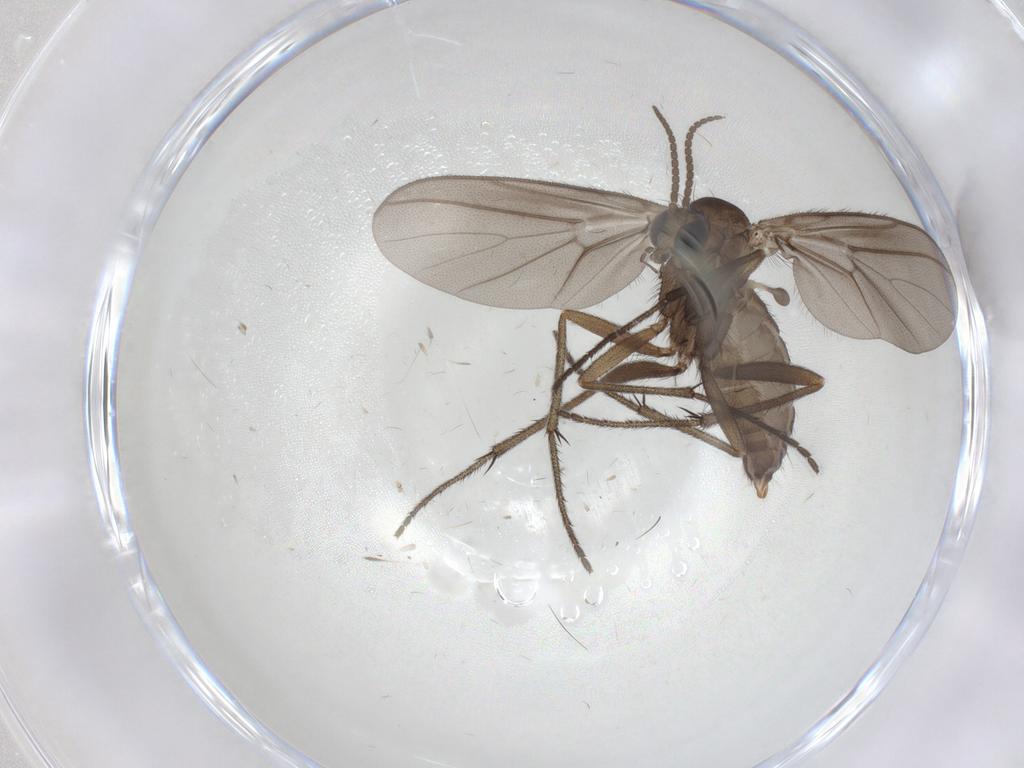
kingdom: Animalia
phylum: Arthropoda
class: Insecta
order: Diptera
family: Diadocidiidae
